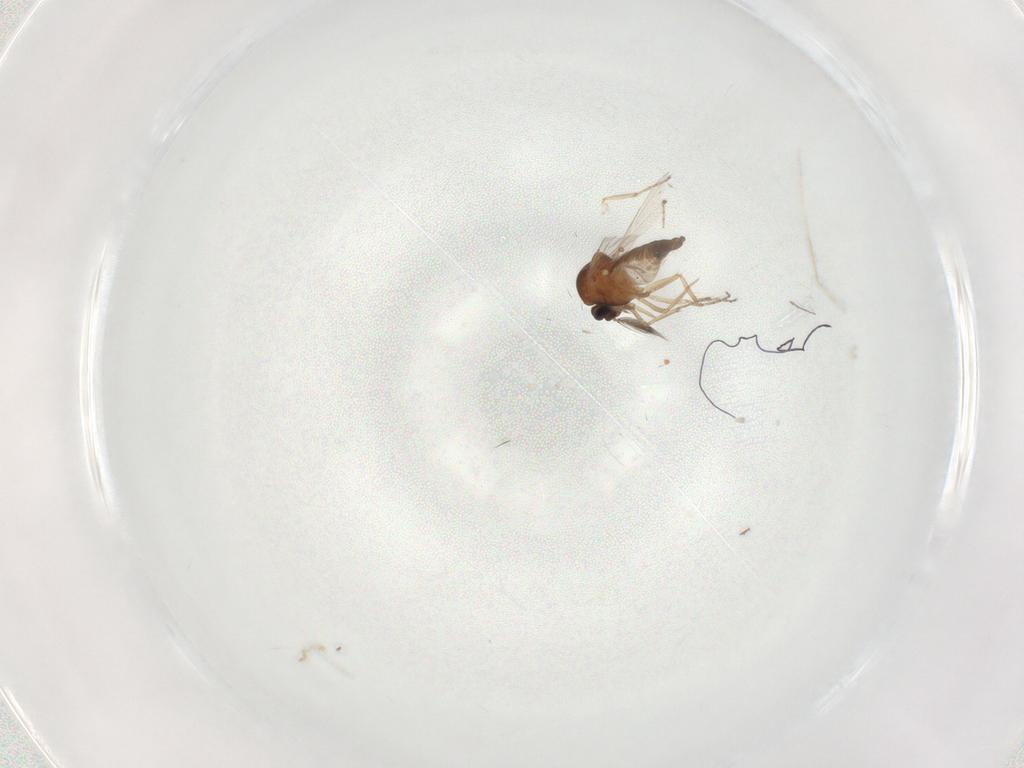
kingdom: Animalia
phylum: Arthropoda
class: Insecta
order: Diptera
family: Ceratopogonidae
